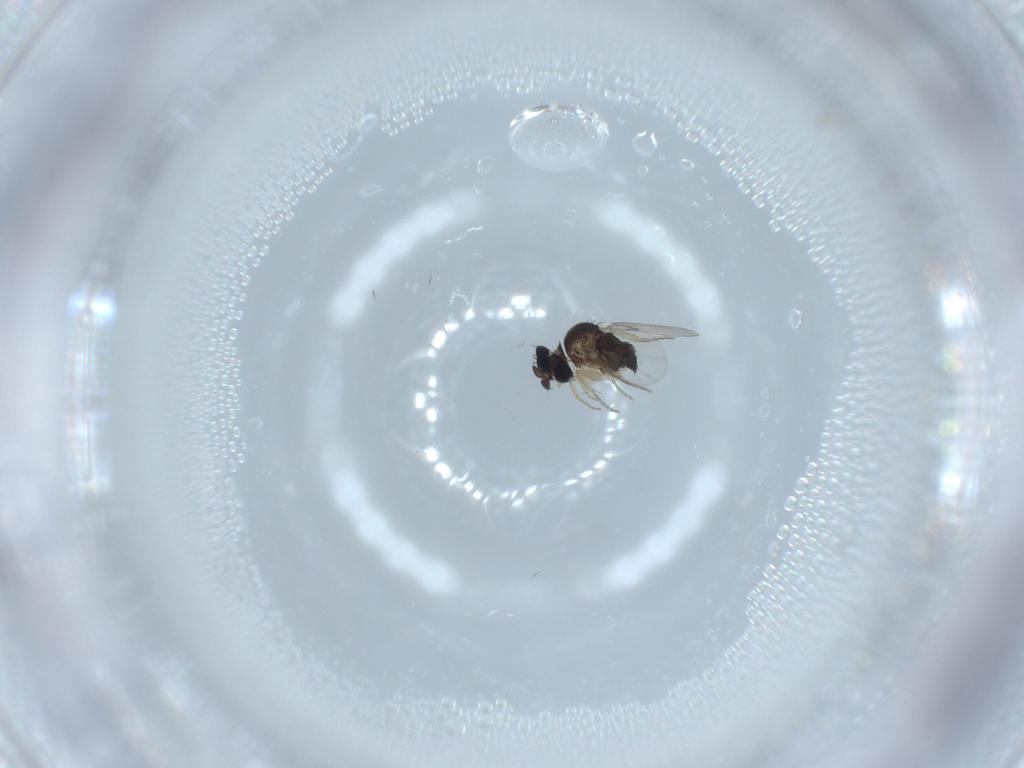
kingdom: Animalia
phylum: Arthropoda
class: Insecta
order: Diptera
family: Phoridae
